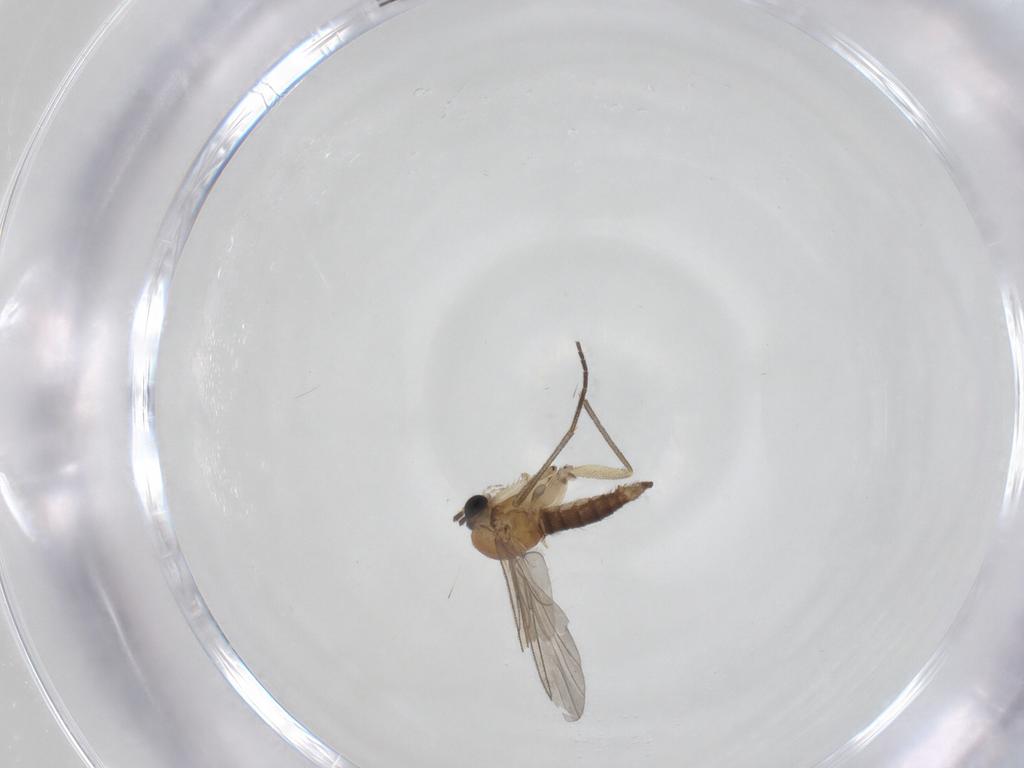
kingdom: Animalia
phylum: Arthropoda
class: Insecta
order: Diptera
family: Sciaridae
